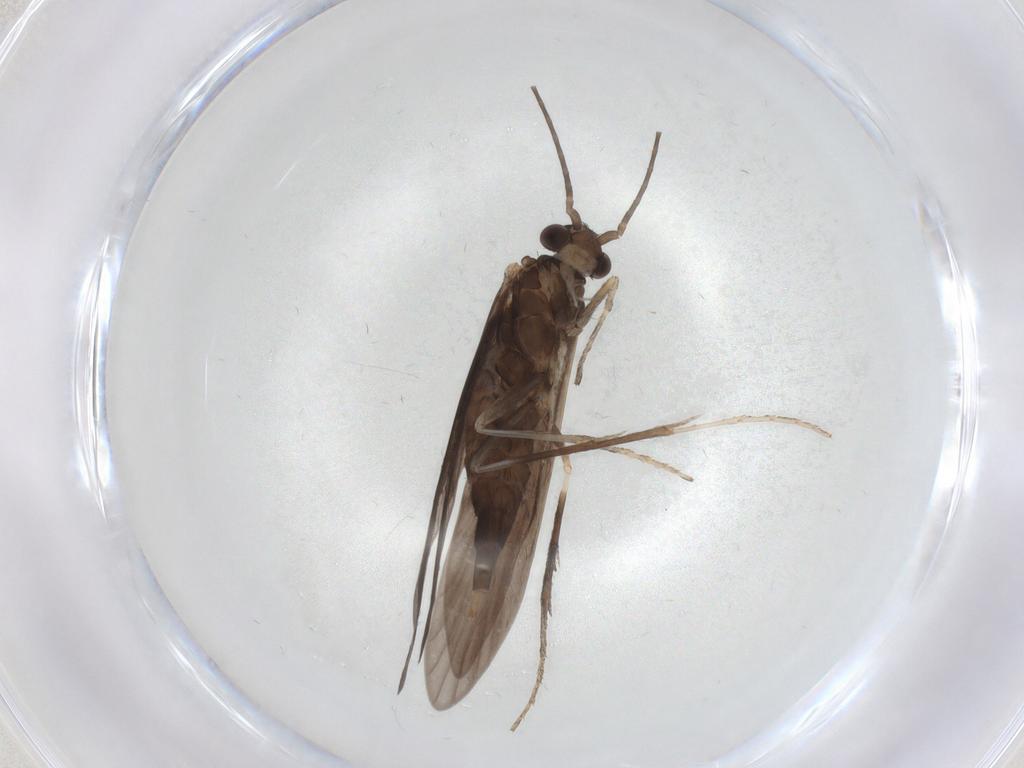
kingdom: Animalia
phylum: Arthropoda
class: Insecta
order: Trichoptera
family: Xiphocentronidae
